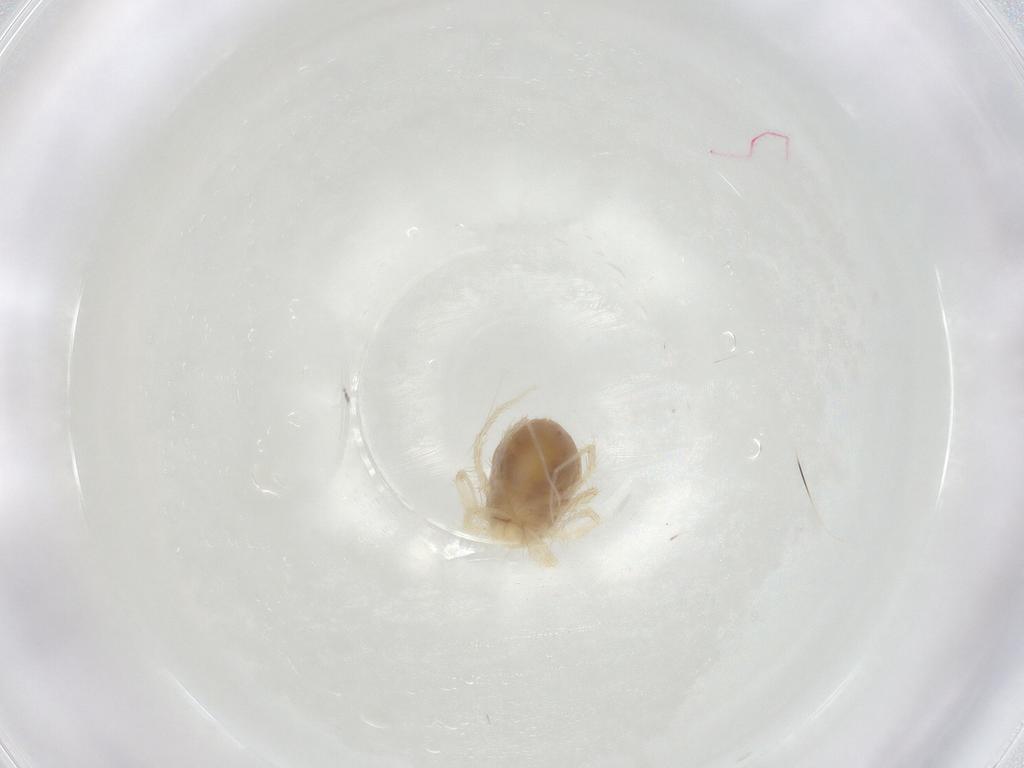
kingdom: Animalia
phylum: Arthropoda
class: Arachnida
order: Trombidiformes
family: Anystidae
